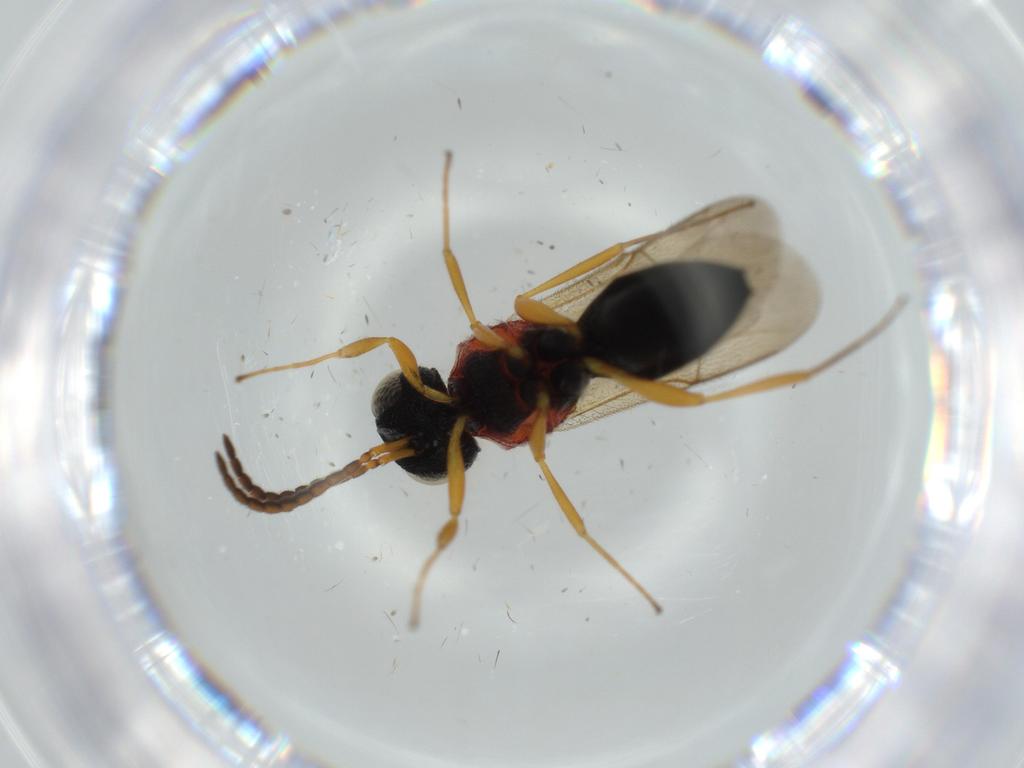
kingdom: Animalia
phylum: Arthropoda
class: Insecta
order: Hymenoptera
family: Scelionidae
